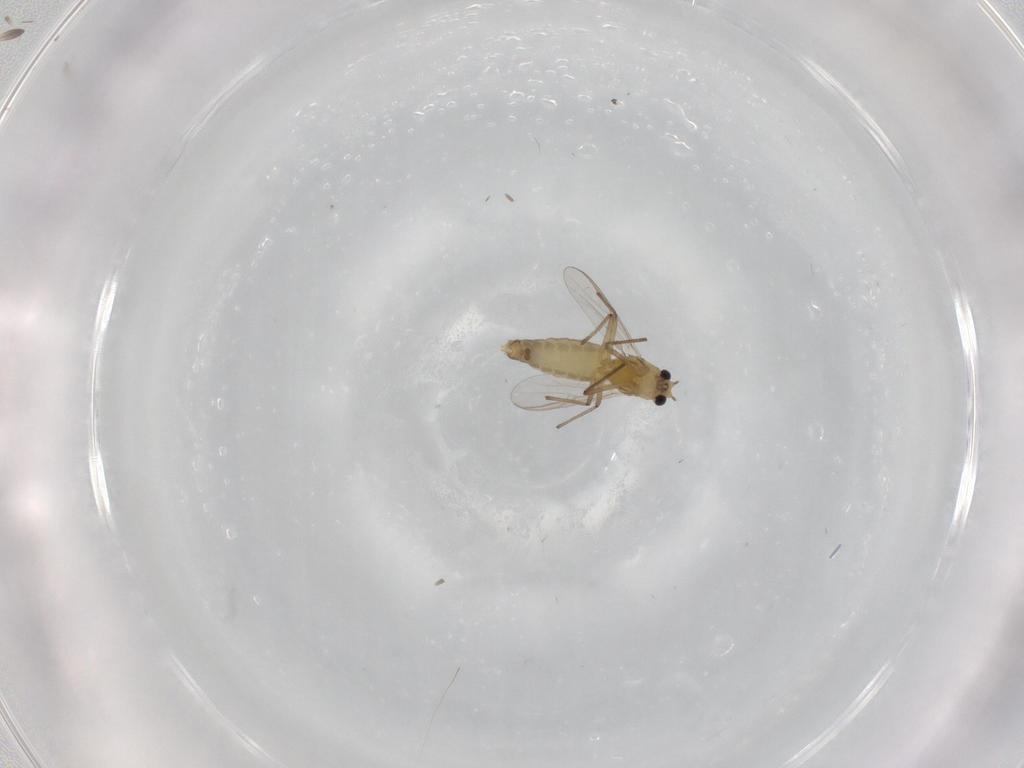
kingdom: Animalia
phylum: Arthropoda
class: Insecta
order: Diptera
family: Chironomidae
